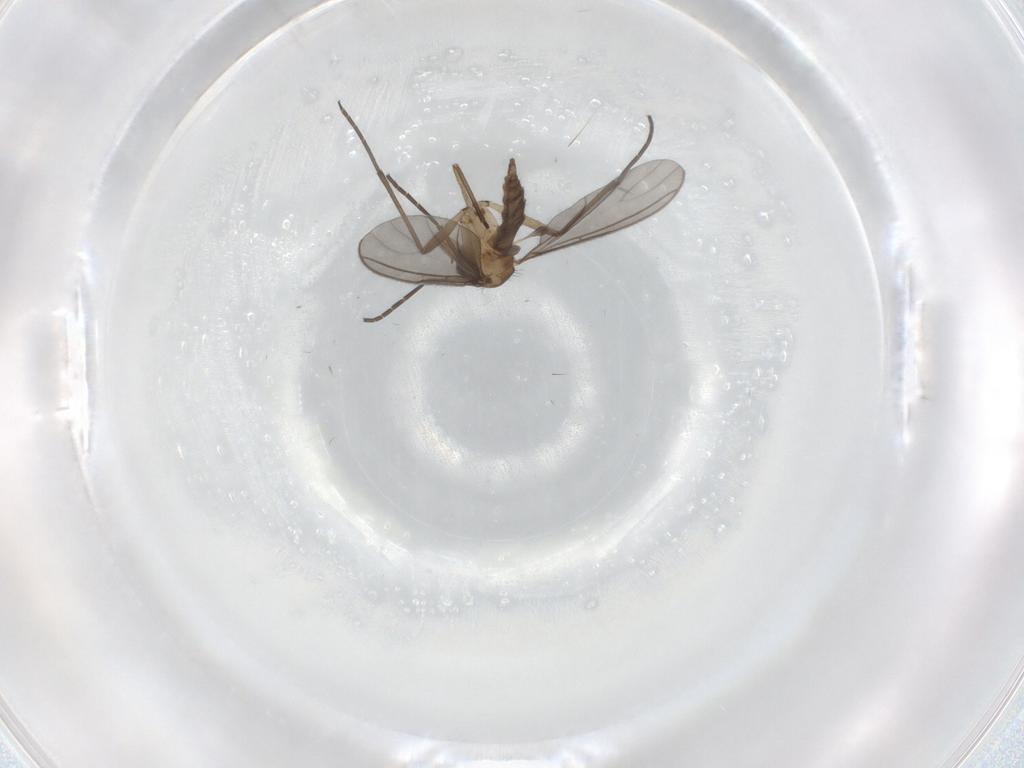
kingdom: Animalia
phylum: Arthropoda
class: Insecta
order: Diptera
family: Sciaridae
